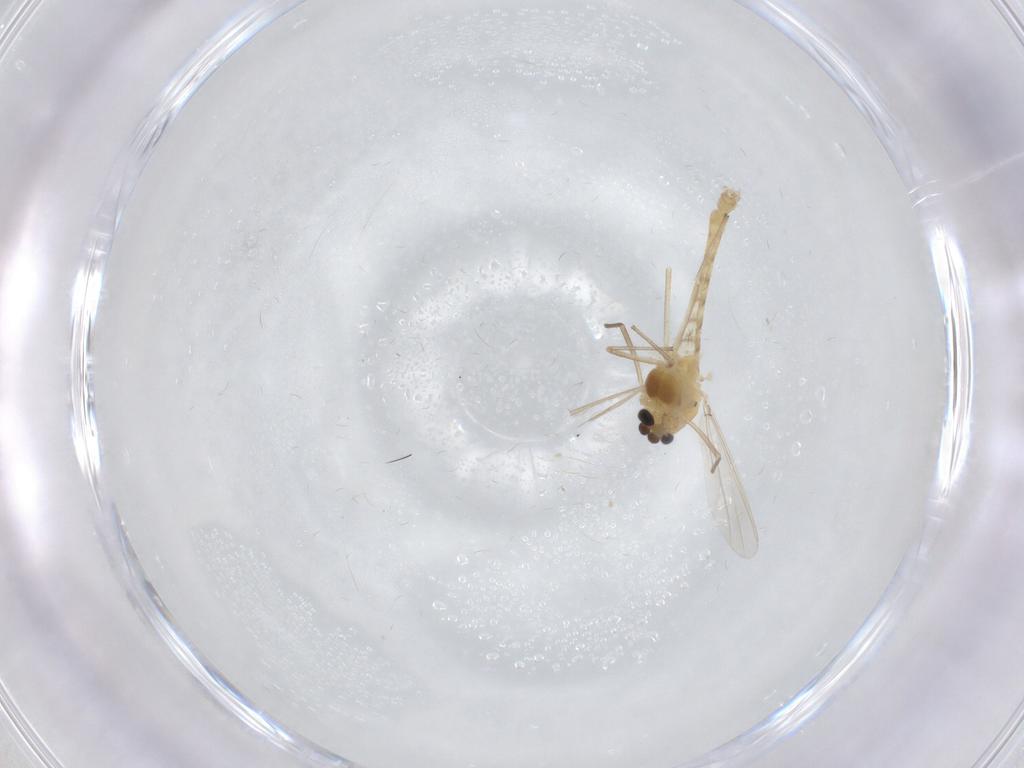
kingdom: Animalia
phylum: Arthropoda
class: Insecta
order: Diptera
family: Chironomidae
